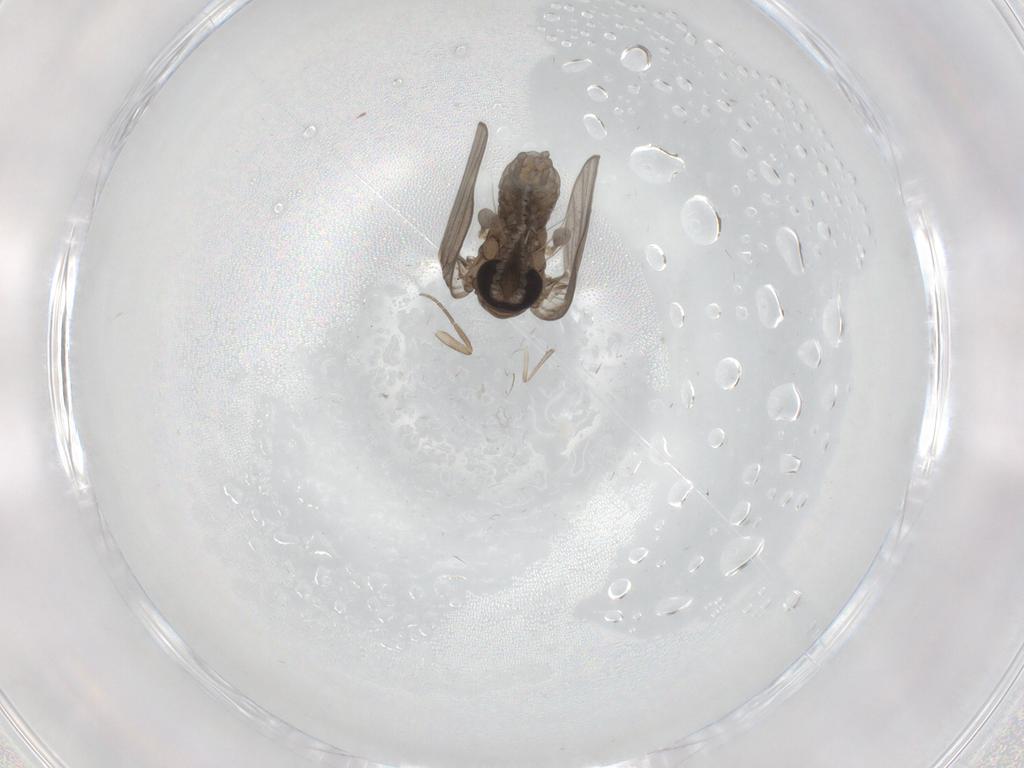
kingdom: Animalia
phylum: Arthropoda
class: Insecta
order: Diptera
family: Psychodidae
